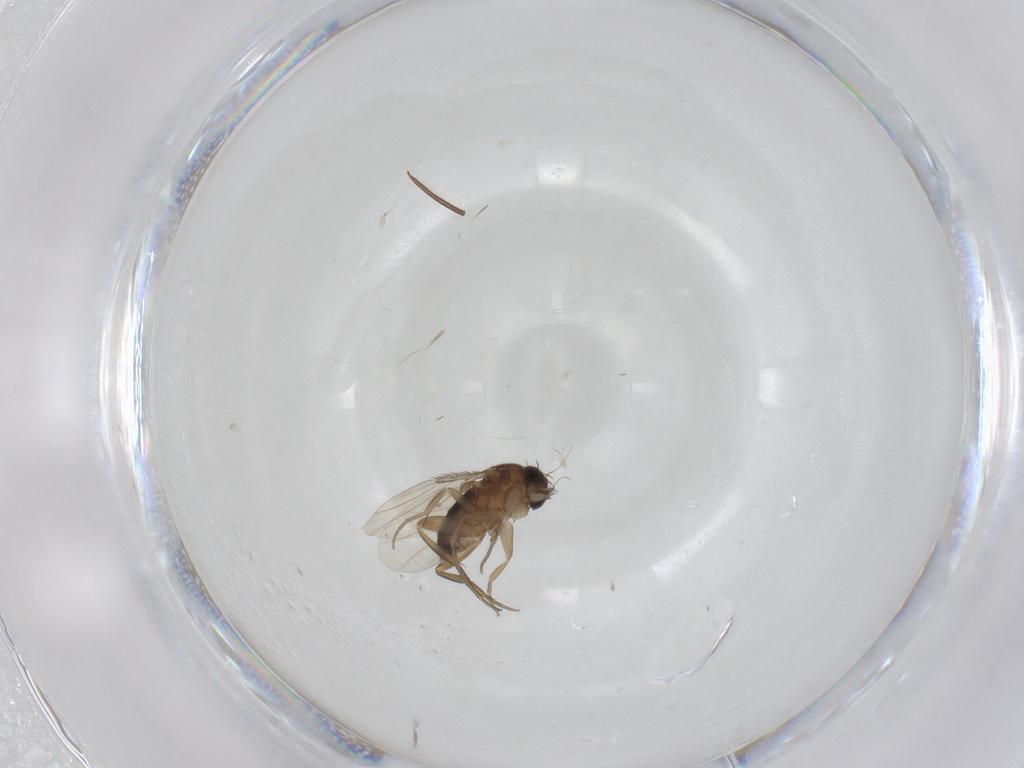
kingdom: Animalia
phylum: Arthropoda
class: Insecta
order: Diptera
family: Phoridae
